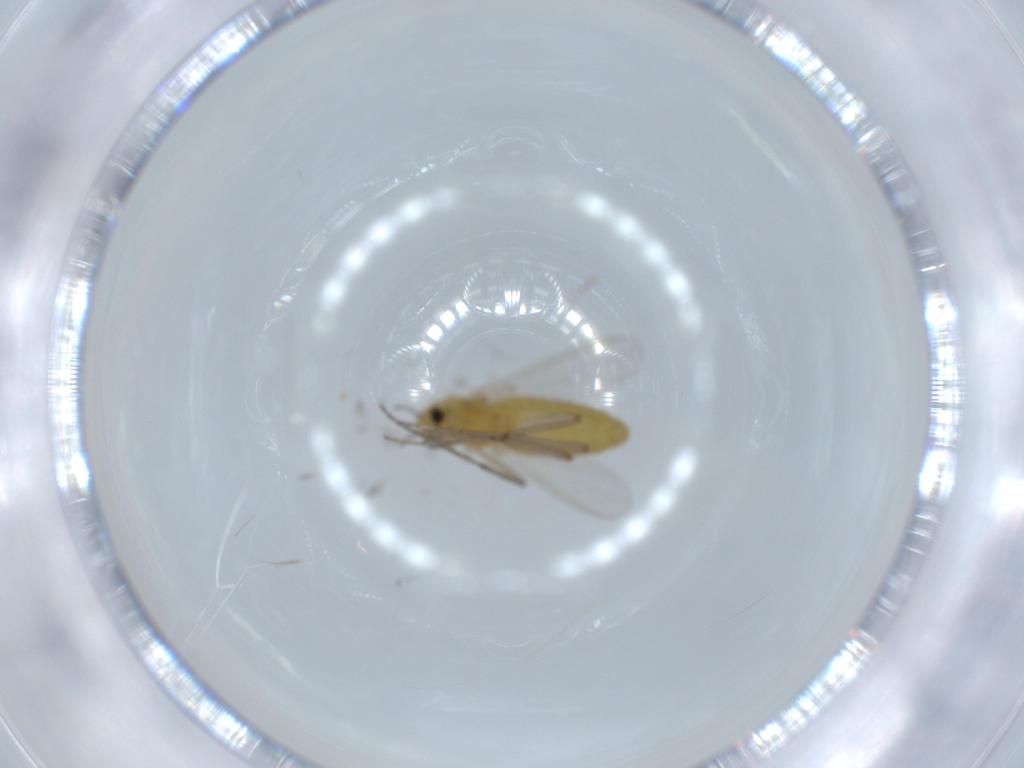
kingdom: Animalia
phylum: Arthropoda
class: Insecta
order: Diptera
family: Chironomidae
